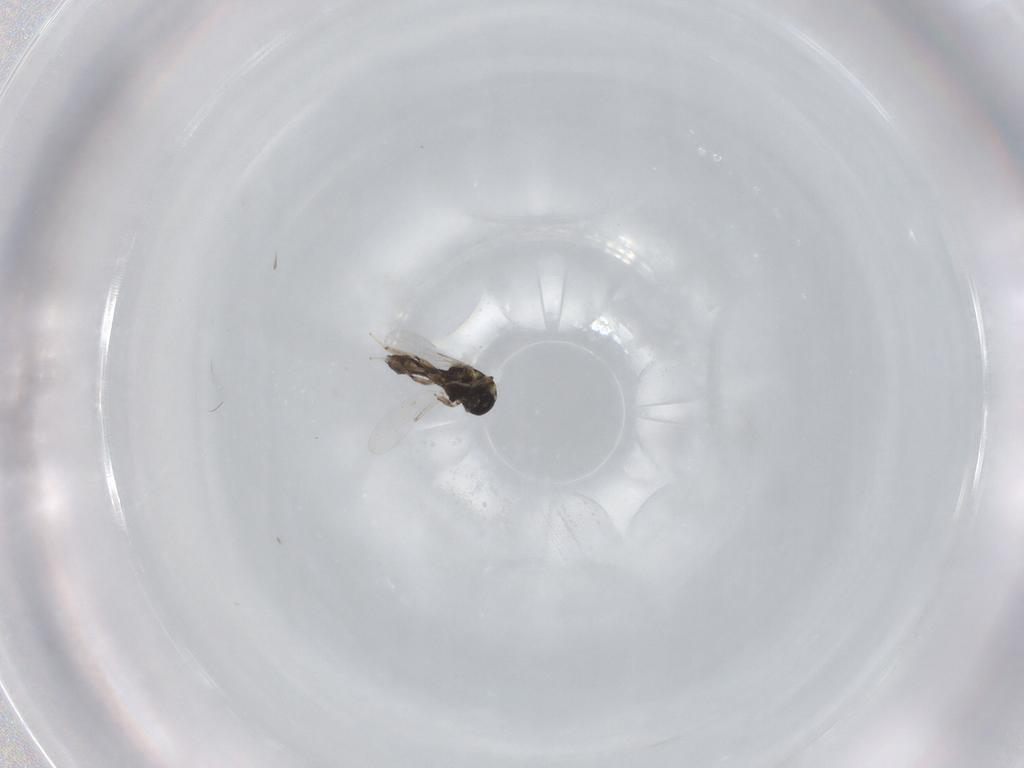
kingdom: Animalia
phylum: Arthropoda
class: Insecta
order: Diptera
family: Ceratopogonidae
